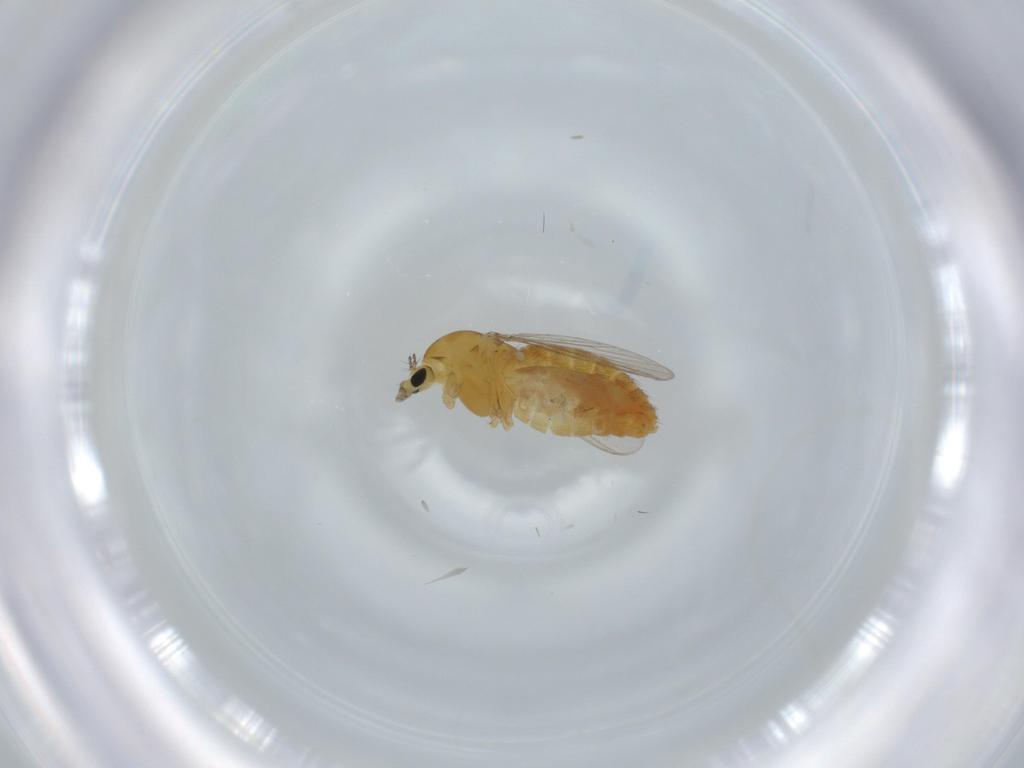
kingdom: Animalia
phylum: Arthropoda
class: Insecta
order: Diptera
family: Chironomidae
